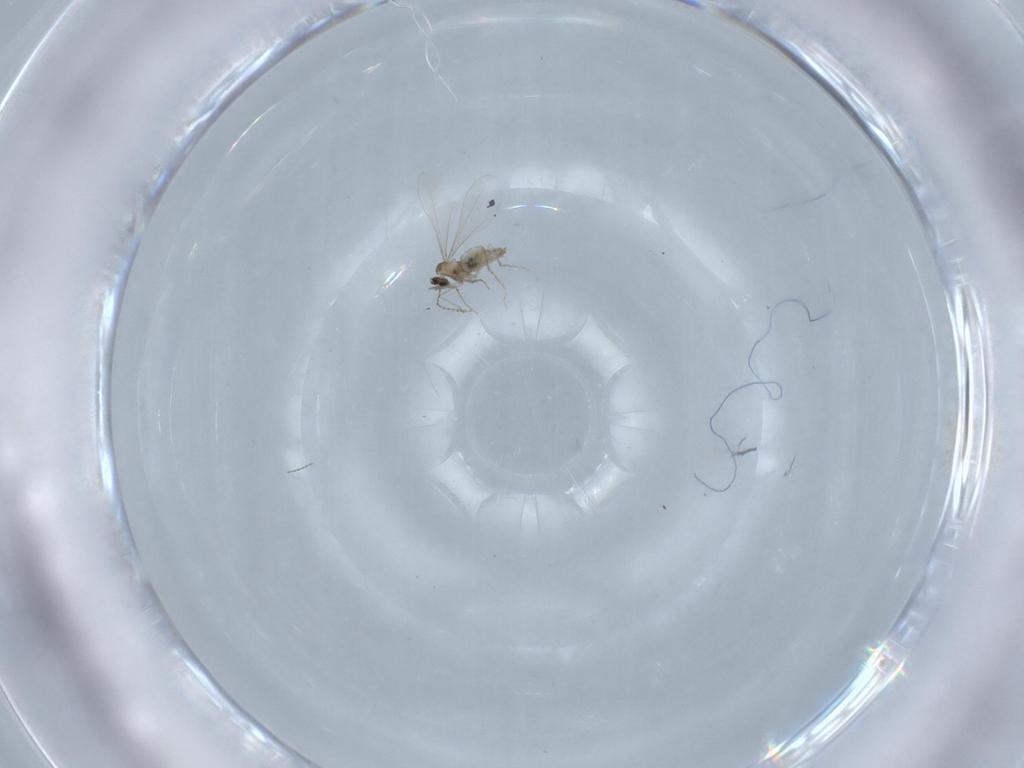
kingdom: Animalia
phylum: Arthropoda
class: Insecta
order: Diptera
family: Cecidomyiidae
